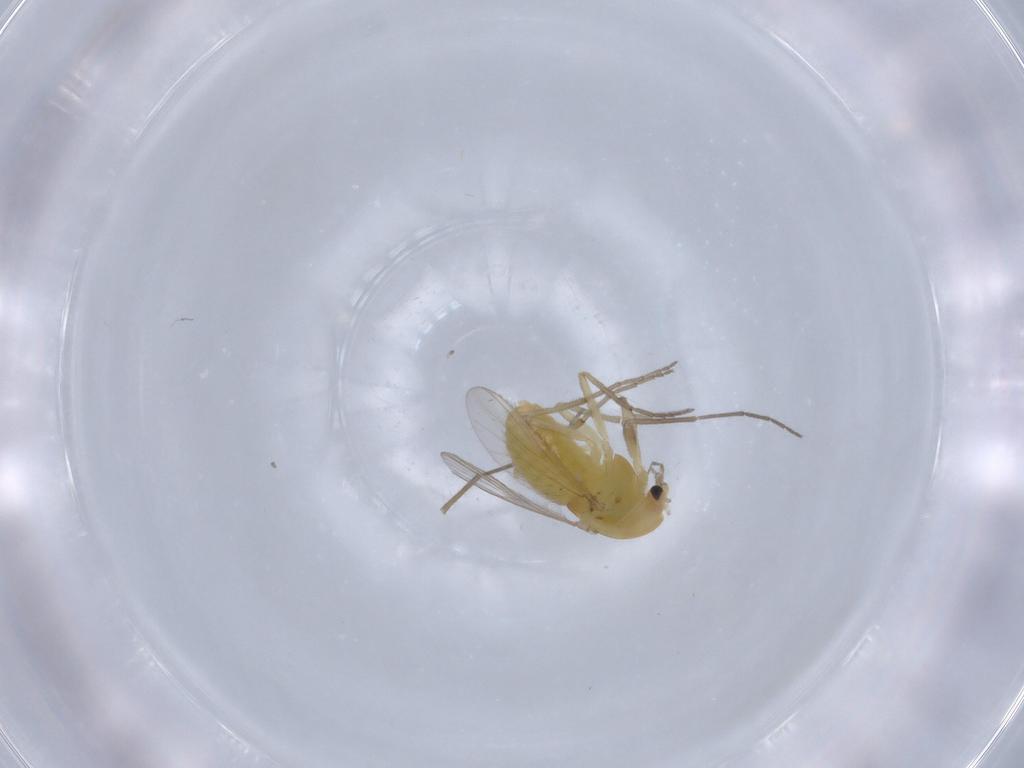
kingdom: Animalia
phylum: Arthropoda
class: Insecta
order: Diptera
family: Chironomidae
